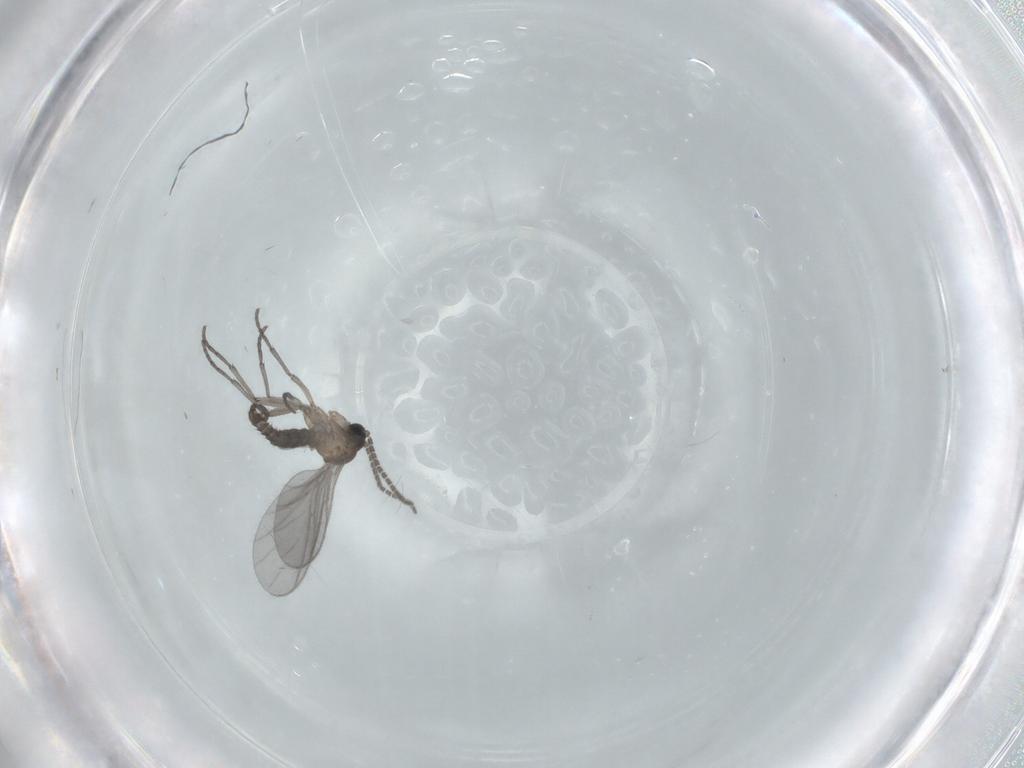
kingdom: Animalia
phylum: Arthropoda
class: Insecta
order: Diptera
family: Sciaridae
